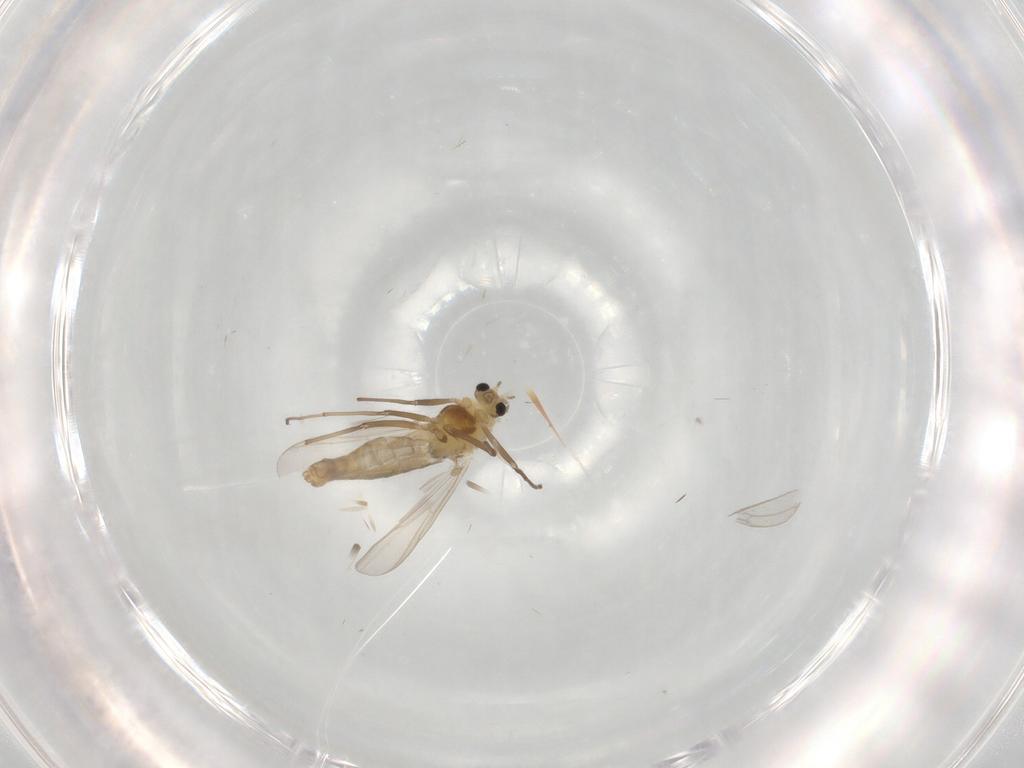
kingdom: Animalia
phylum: Arthropoda
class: Insecta
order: Diptera
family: Cecidomyiidae
